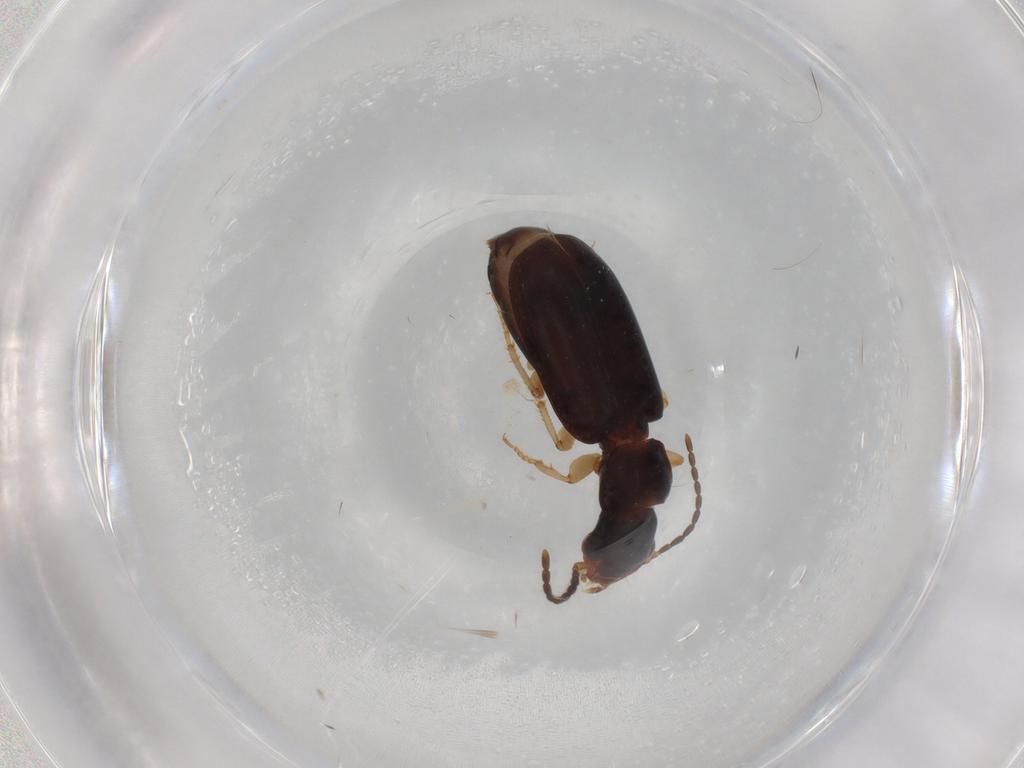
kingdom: Animalia
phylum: Arthropoda
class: Insecta
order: Coleoptera
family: Carabidae
